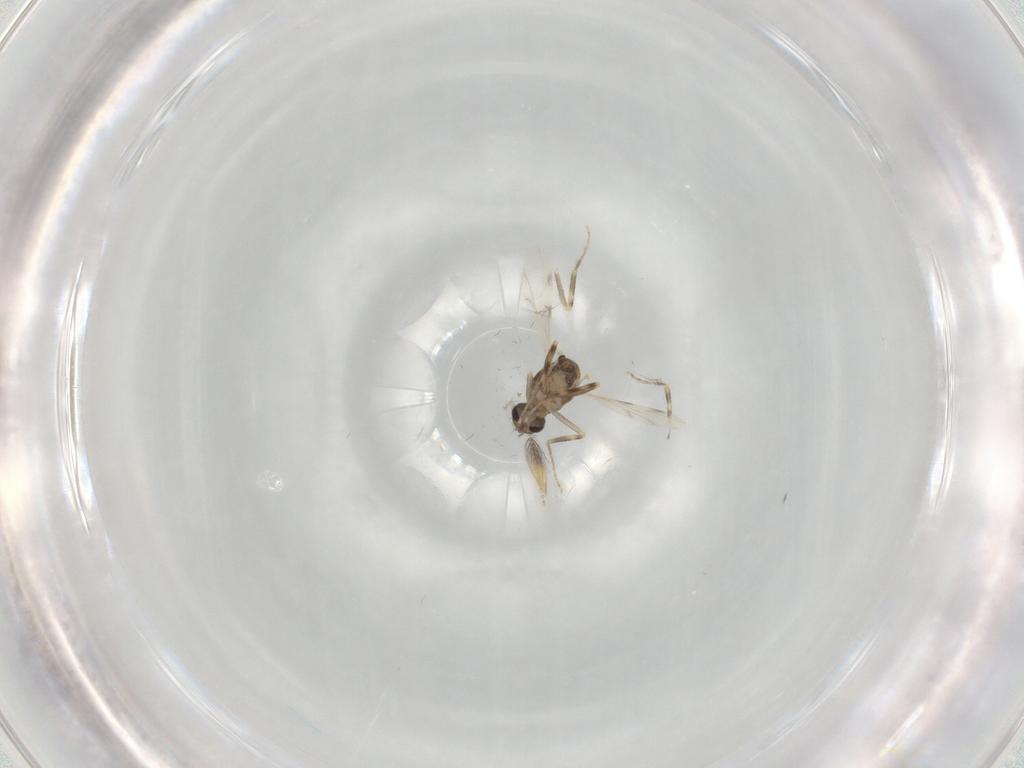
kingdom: Animalia
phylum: Arthropoda
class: Insecta
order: Diptera
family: Ceratopogonidae
